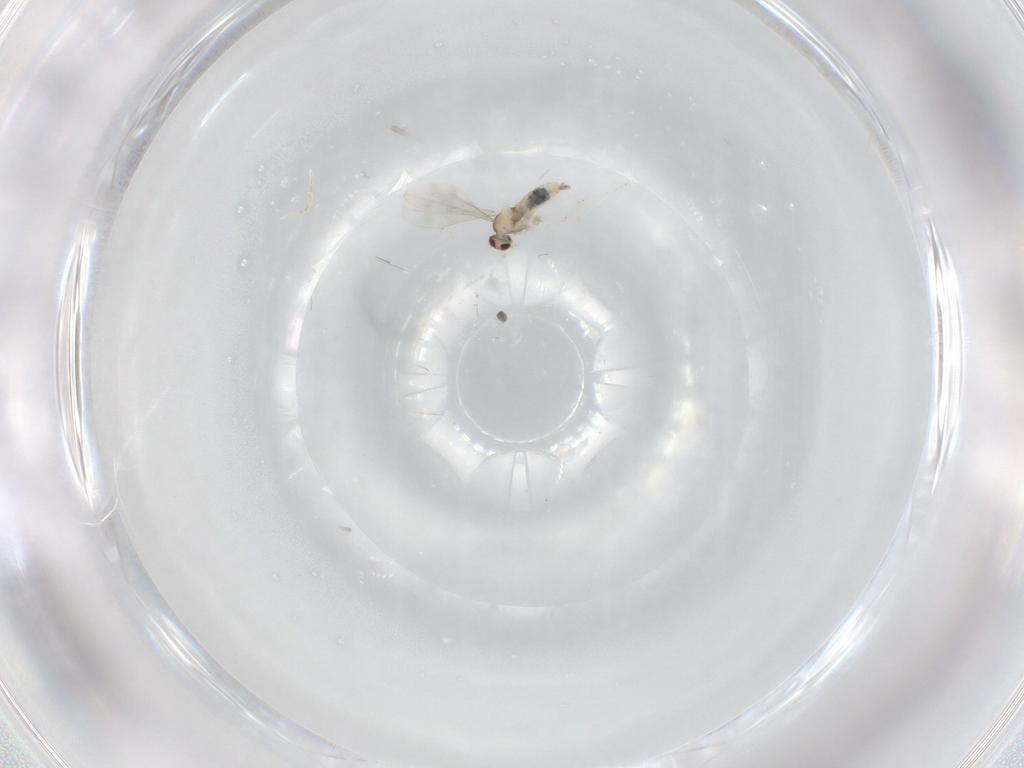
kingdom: Animalia
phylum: Arthropoda
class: Insecta
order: Diptera
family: Cecidomyiidae
